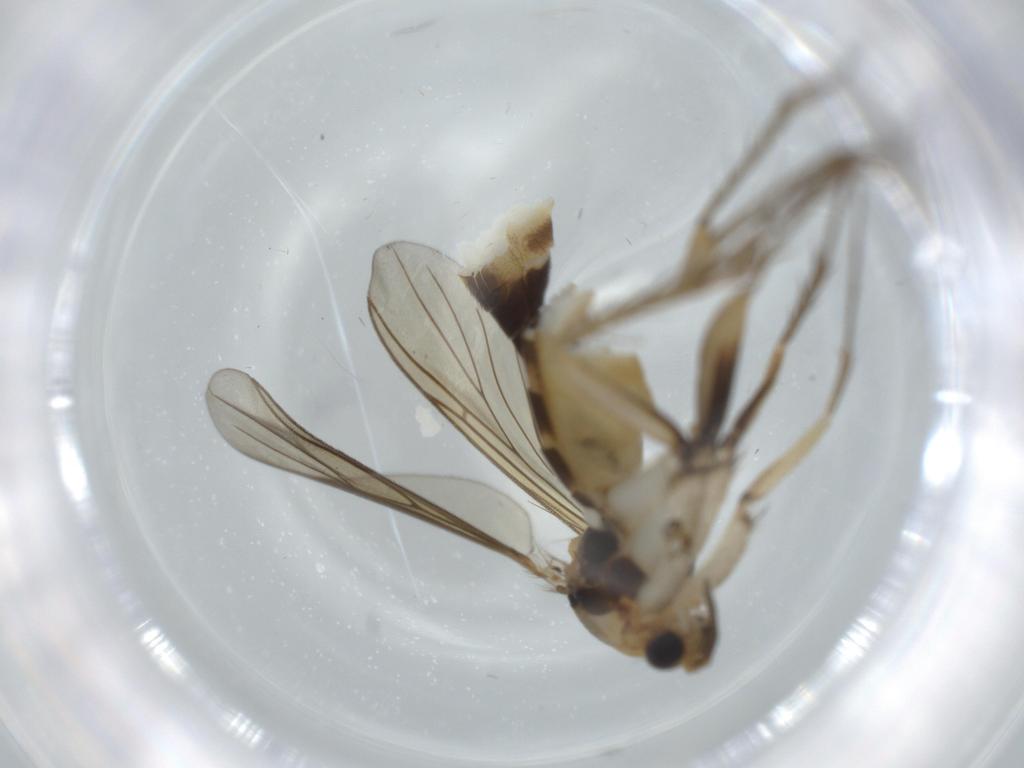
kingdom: Animalia
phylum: Arthropoda
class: Insecta
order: Diptera
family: Mycetophilidae
